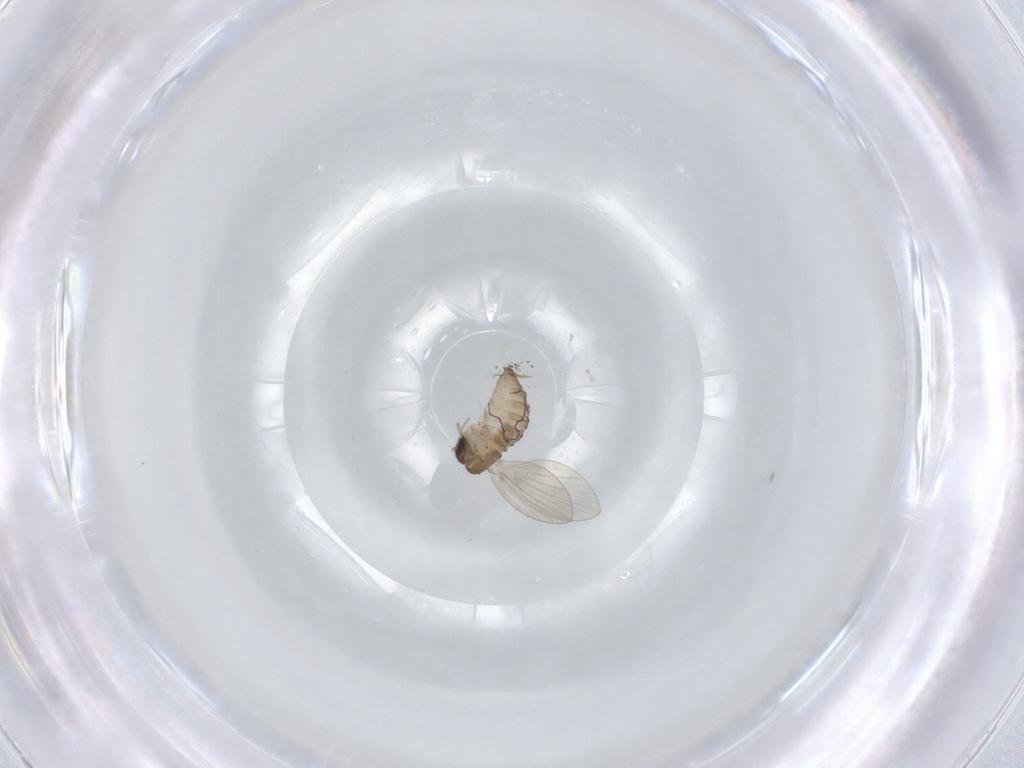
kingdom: Animalia
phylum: Arthropoda
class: Insecta
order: Diptera
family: Psychodidae
